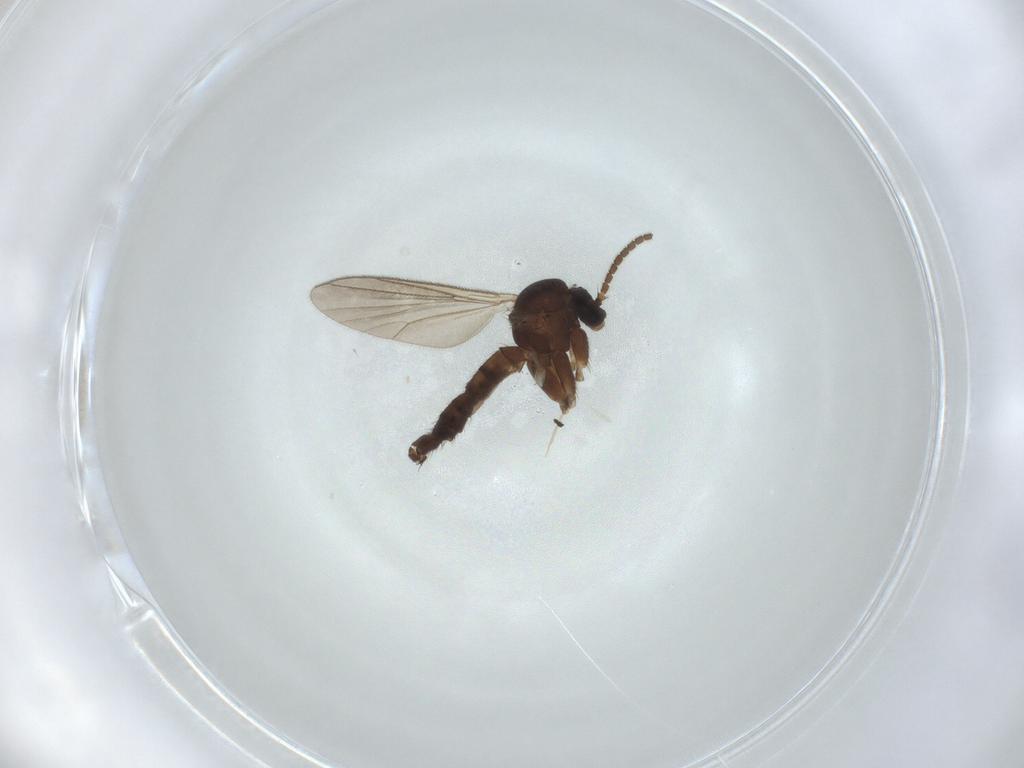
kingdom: Animalia
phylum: Arthropoda
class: Insecta
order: Diptera
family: Mycetophilidae
